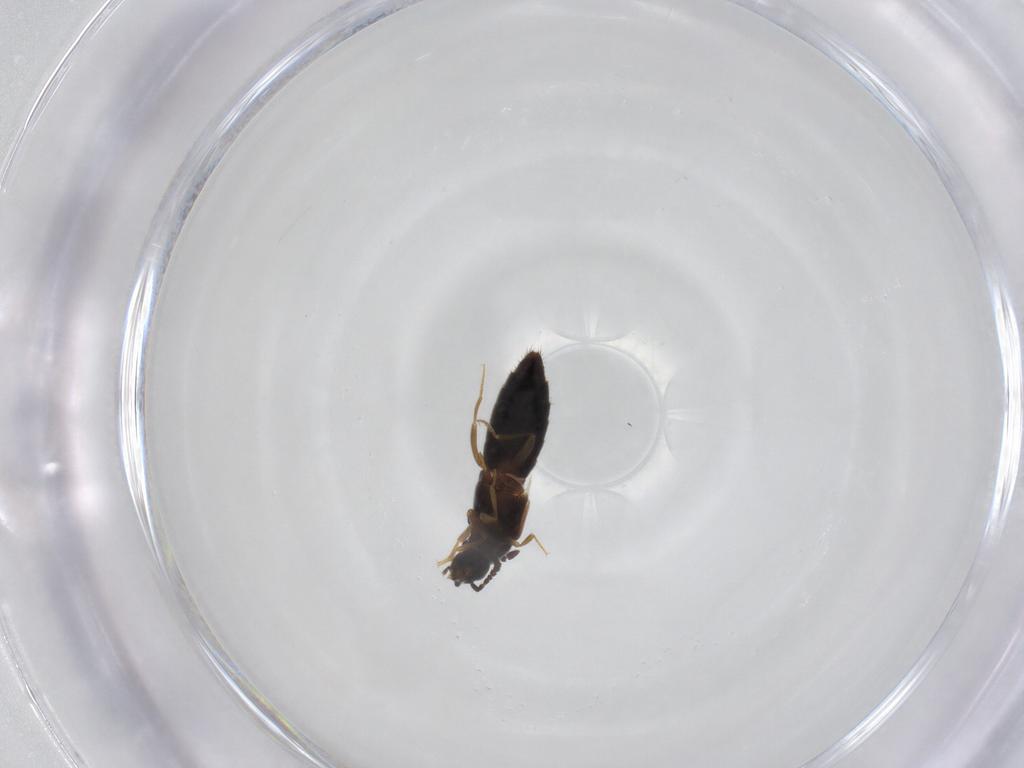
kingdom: Animalia
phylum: Arthropoda
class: Insecta
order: Coleoptera
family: Staphylinidae
